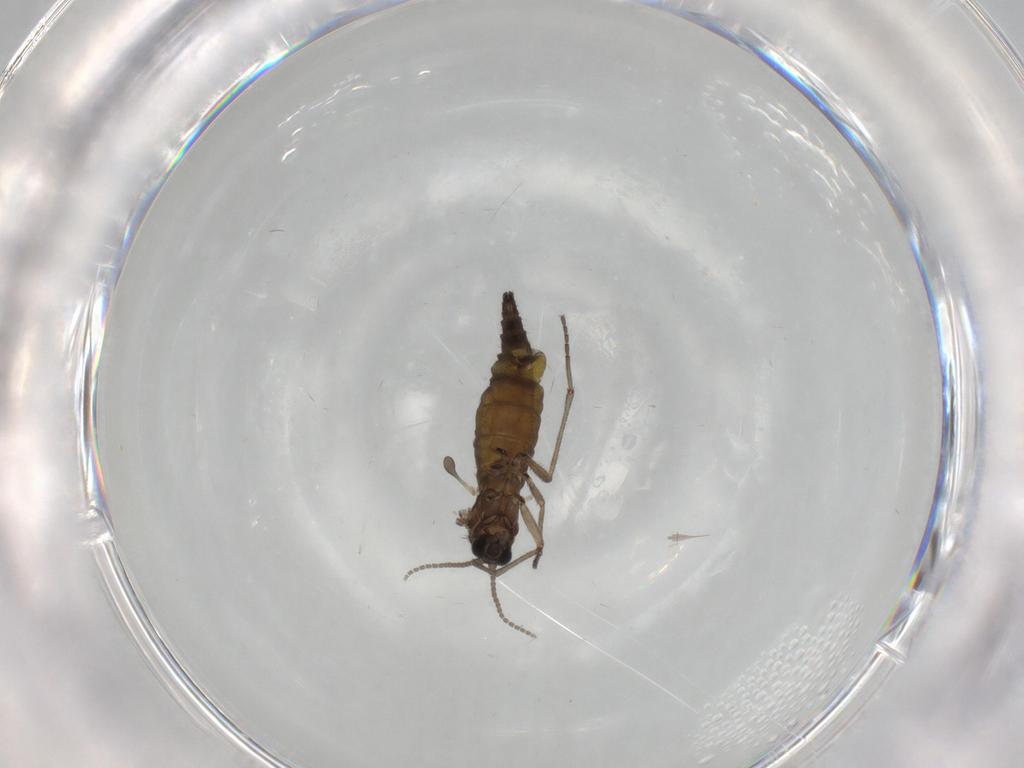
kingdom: Animalia
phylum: Arthropoda
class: Insecta
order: Diptera
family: Sciaridae
